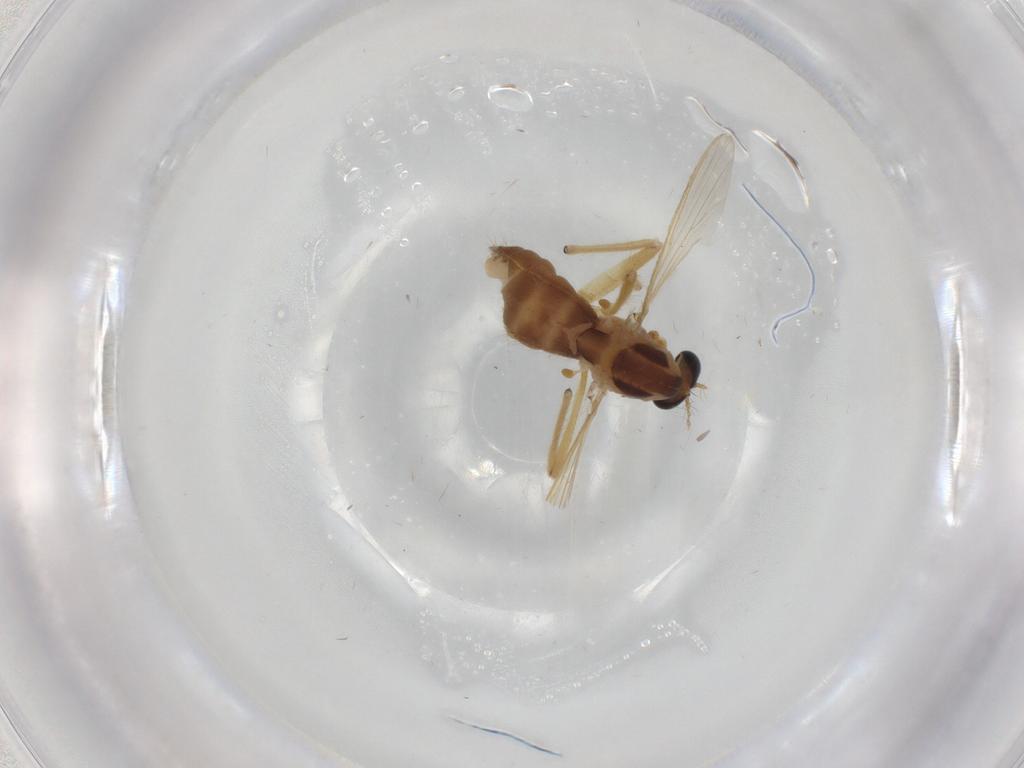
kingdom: Animalia
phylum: Arthropoda
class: Insecta
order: Diptera
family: Chironomidae
